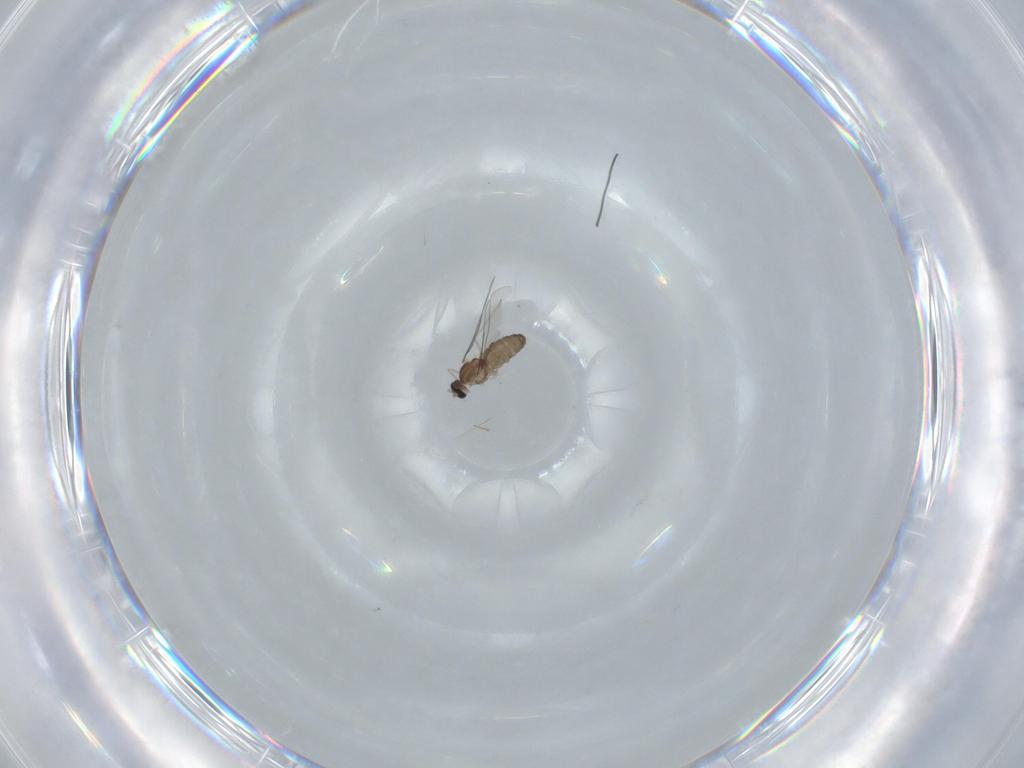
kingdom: Animalia
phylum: Arthropoda
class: Insecta
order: Diptera
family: Cecidomyiidae
